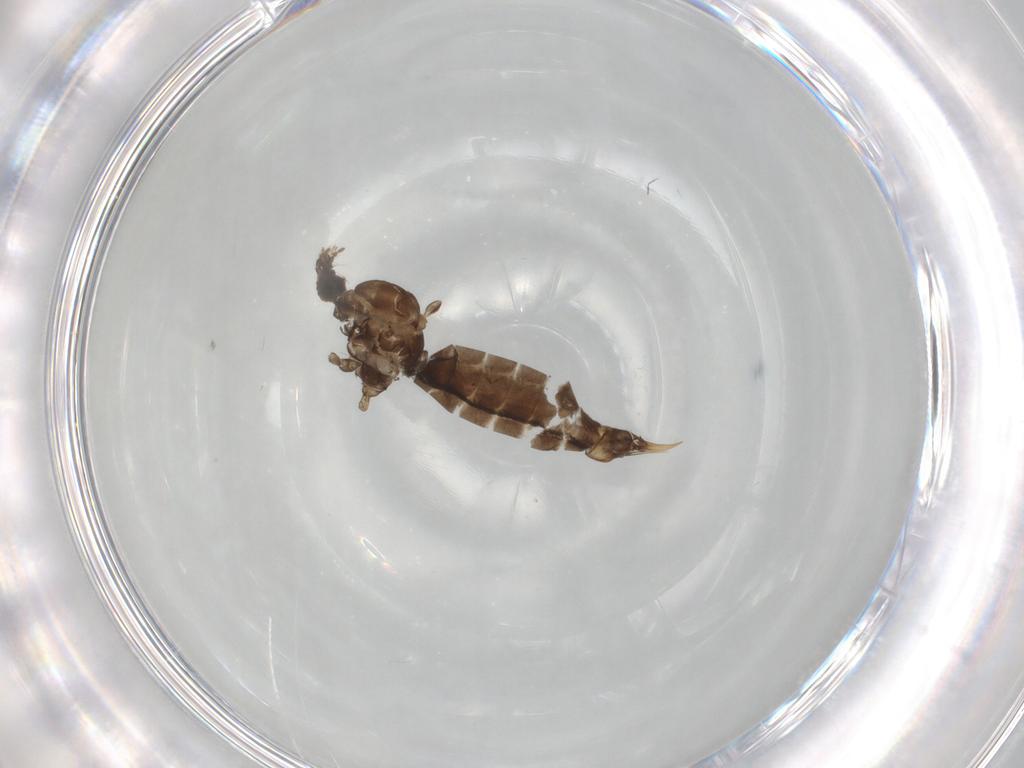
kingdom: Animalia
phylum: Arthropoda
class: Insecta
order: Diptera
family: Limoniidae
